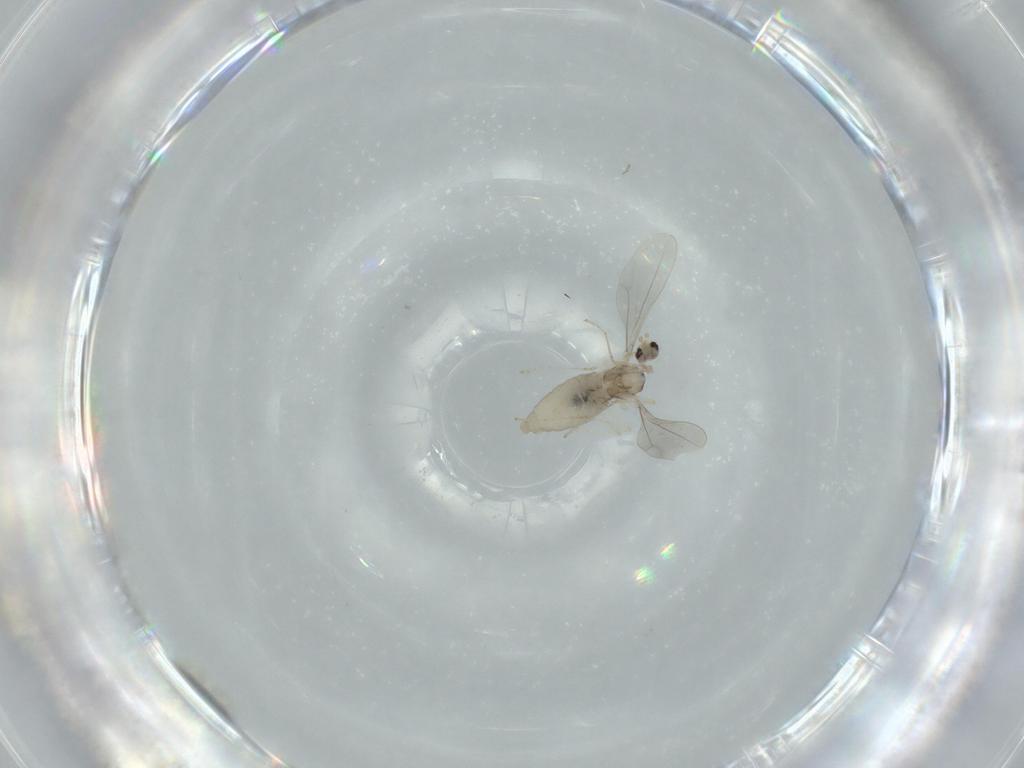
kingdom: Animalia
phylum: Arthropoda
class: Insecta
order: Diptera
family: Cecidomyiidae
